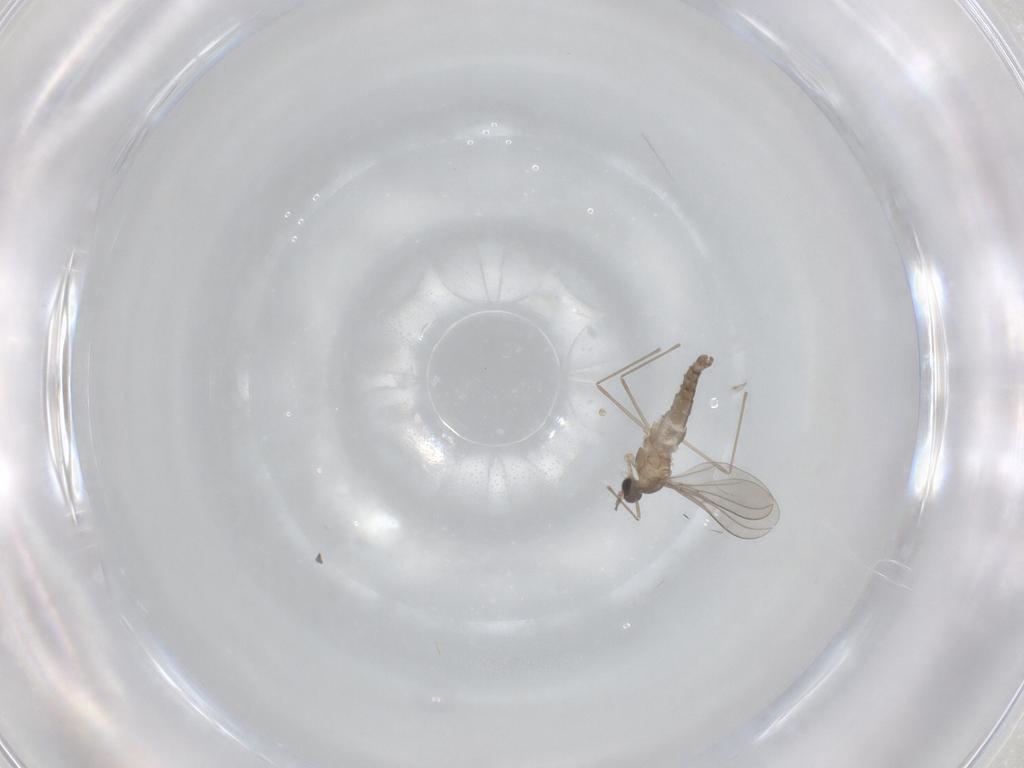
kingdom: Animalia
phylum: Arthropoda
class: Insecta
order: Diptera
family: Cecidomyiidae
